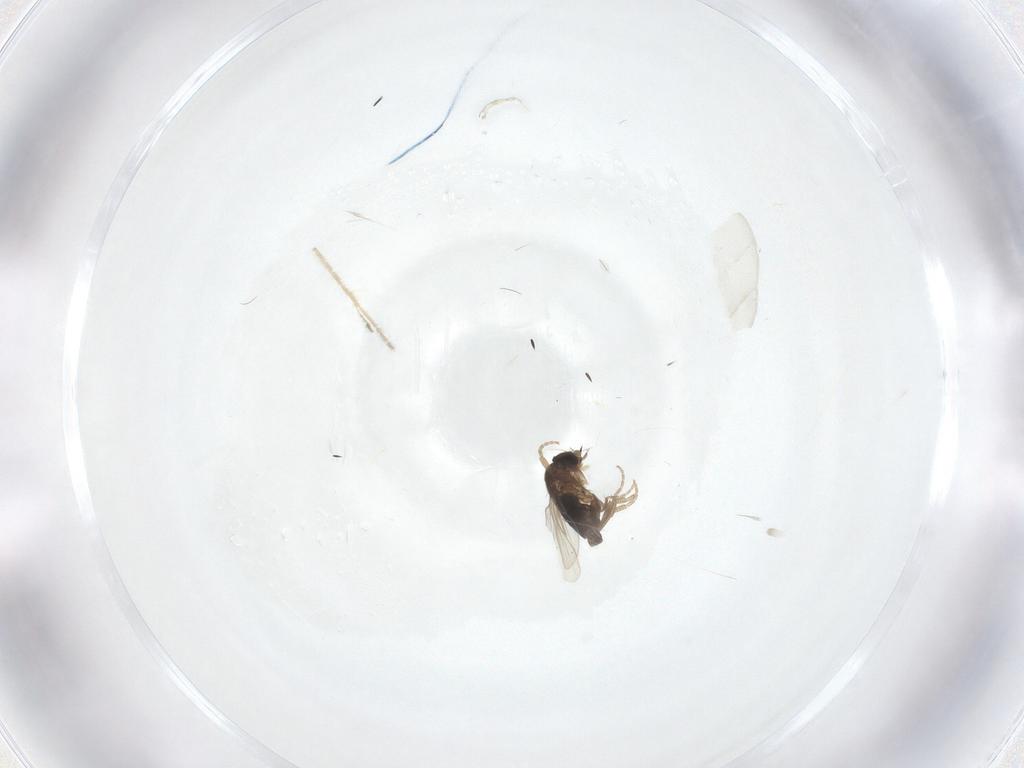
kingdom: Animalia
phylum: Arthropoda
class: Insecta
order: Diptera
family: Phoridae
